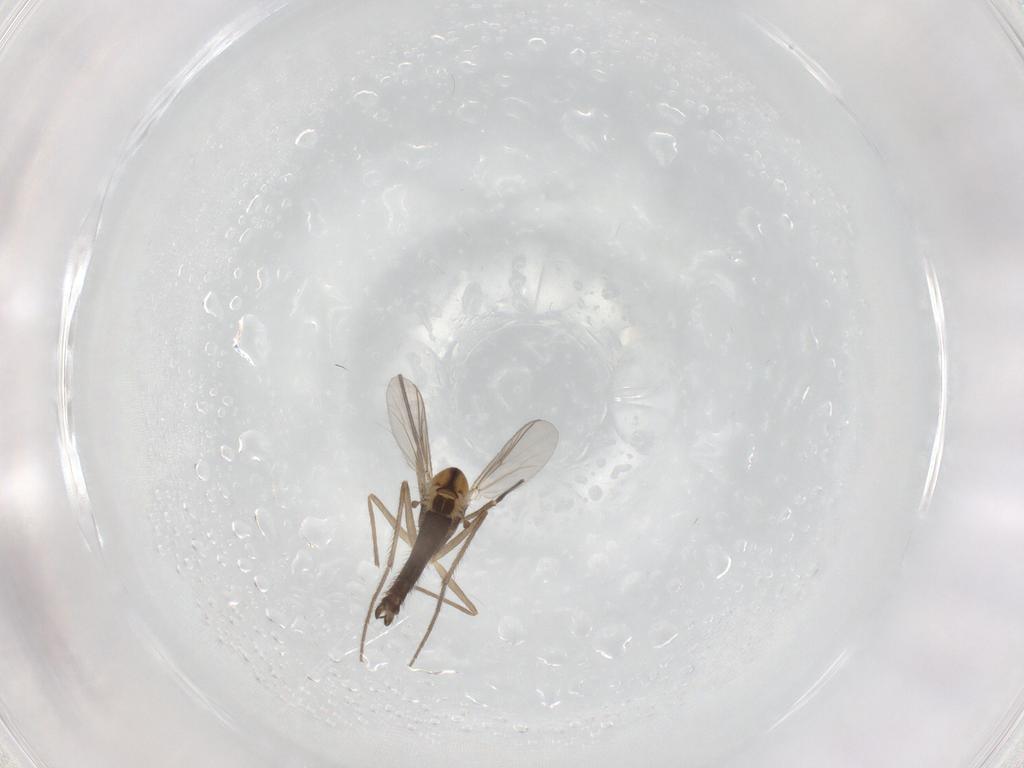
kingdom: Animalia
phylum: Arthropoda
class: Insecta
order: Diptera
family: Chironomidae
